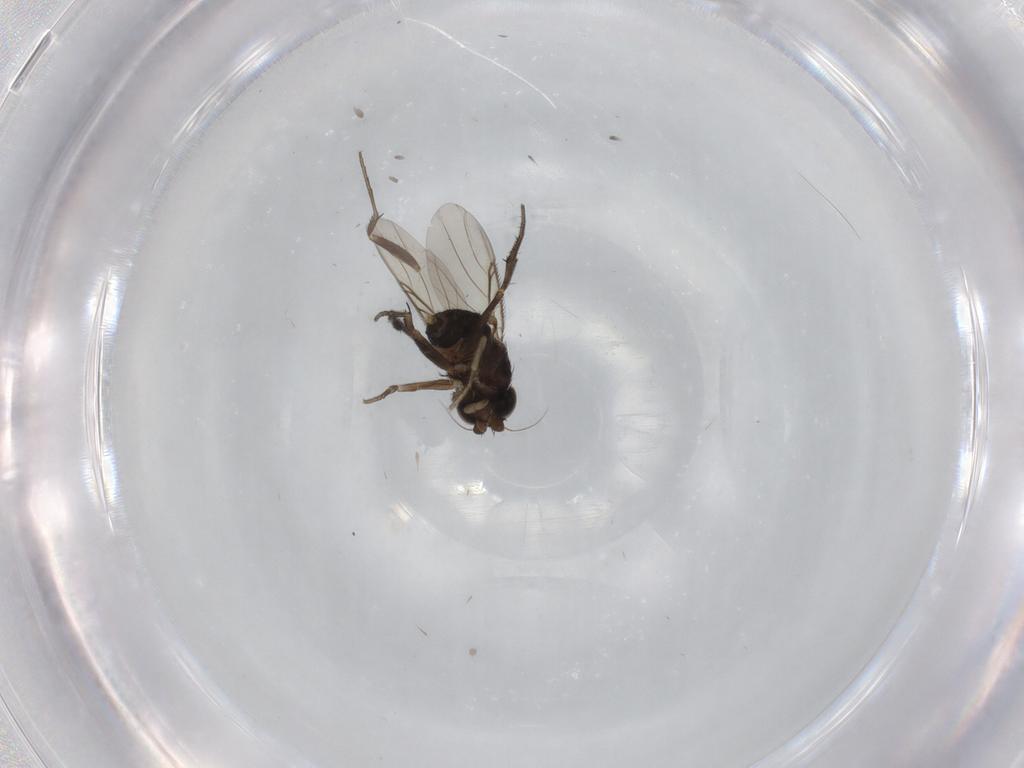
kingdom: Animalia
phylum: Arthropoda
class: Insecta
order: Diptera
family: Phoridae
